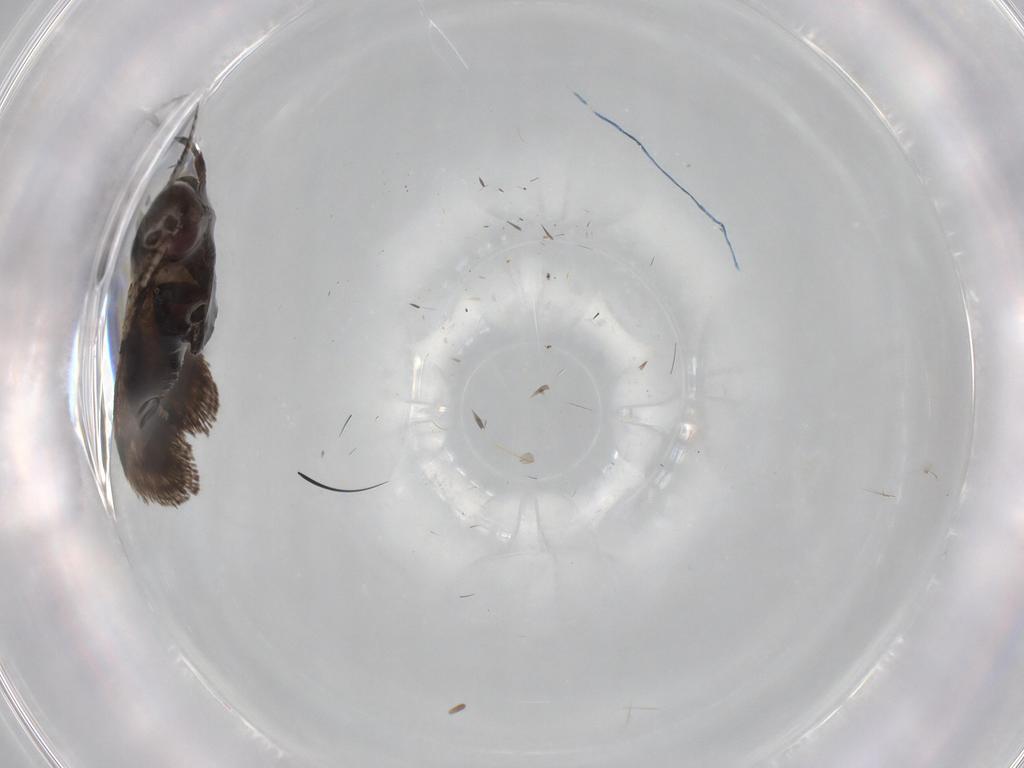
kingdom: Animalia
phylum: Arthropoda
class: Insecta
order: Lepidoptera
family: Gelechiidae
